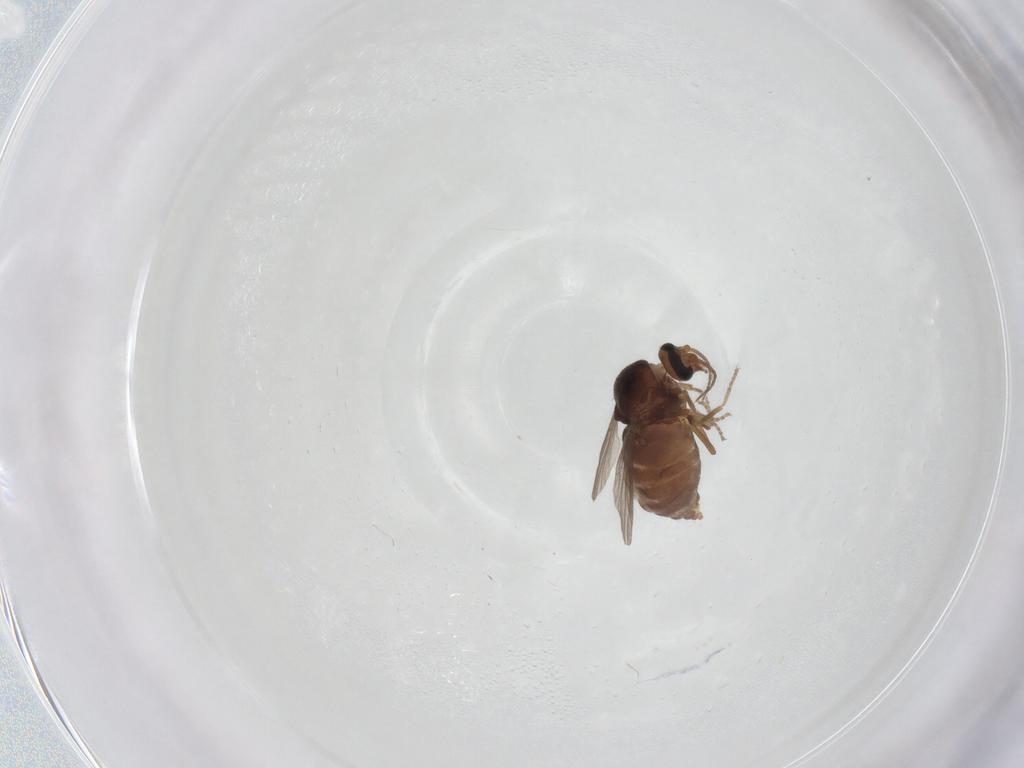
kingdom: Animalia
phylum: Arthropoda
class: Insecta
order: Diptera
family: Ceratopogonidae
